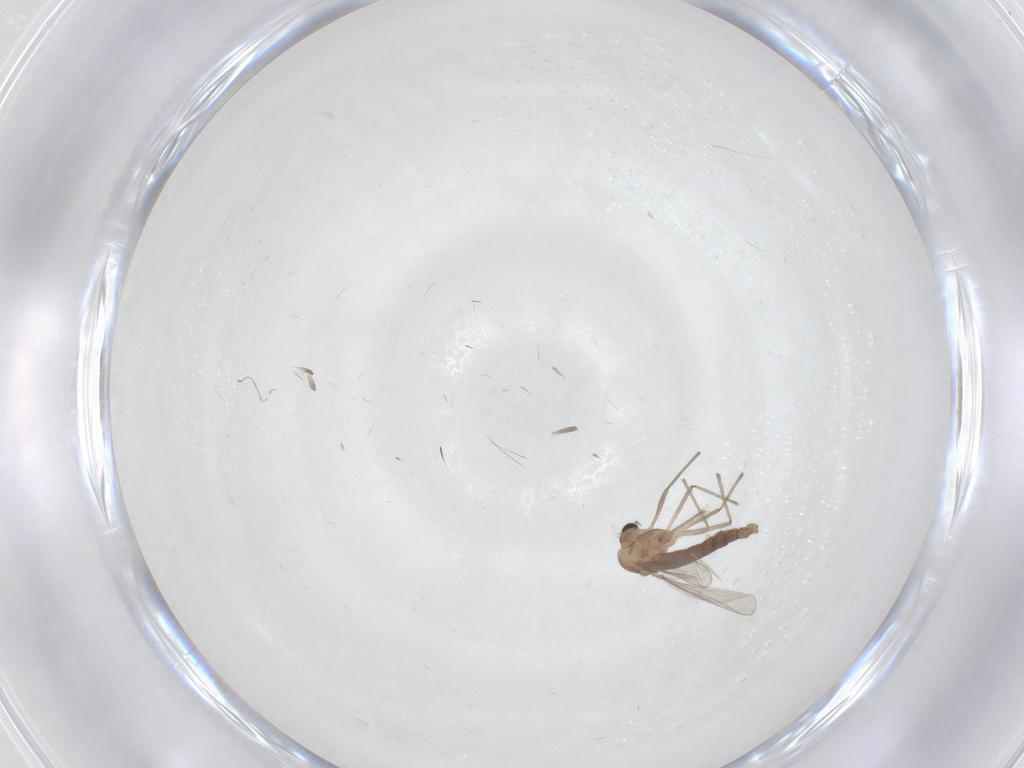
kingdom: Animalia
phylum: Arthropoda
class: Insecta
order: Diptera
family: Chironomidae
